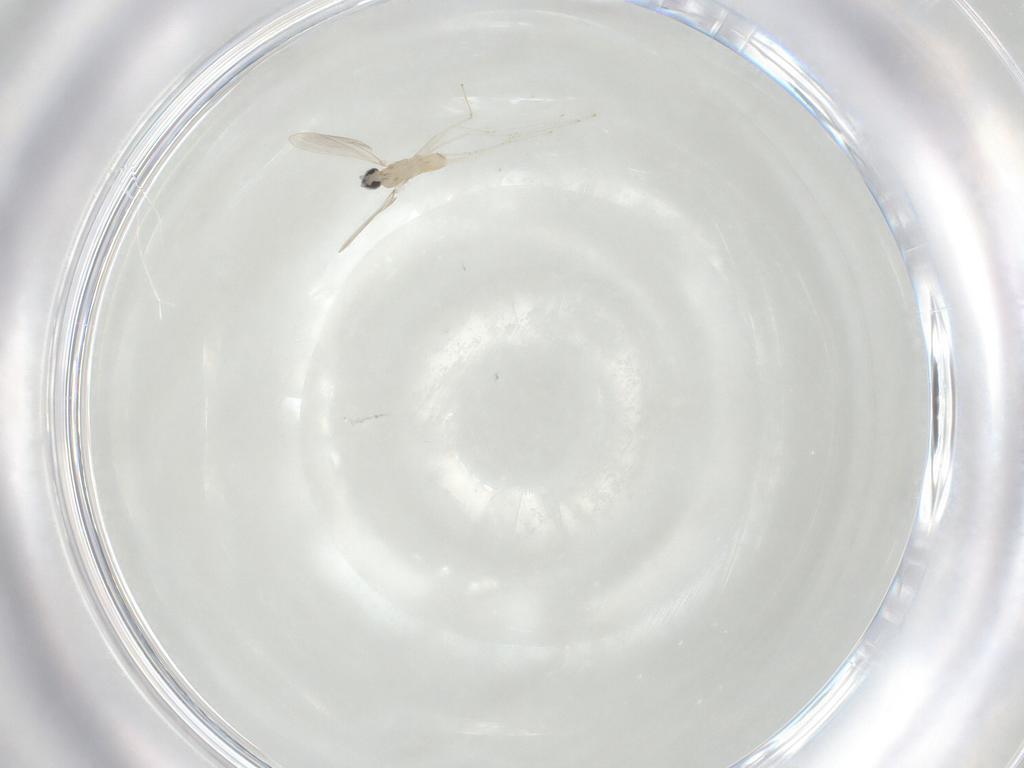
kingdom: Animalia
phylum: Arthropoda
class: Insecta
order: Diptera
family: Cecidomyiidae
